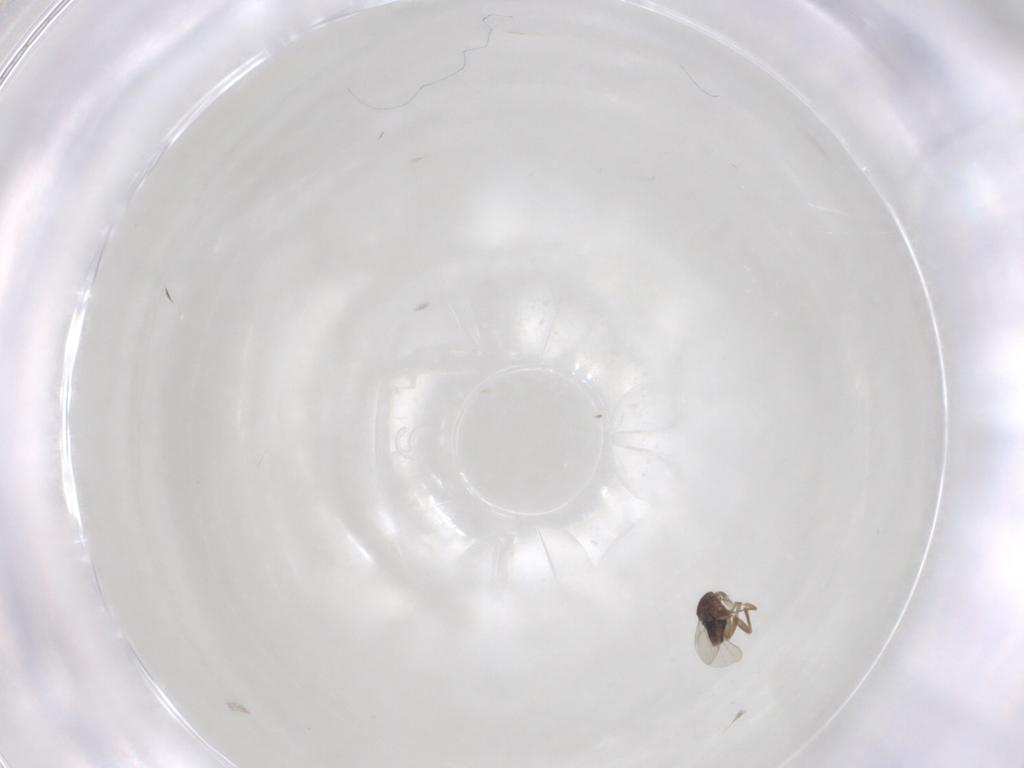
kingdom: Animalia
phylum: Arthropoda
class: Insecta
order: Diptera
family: Phoridae
